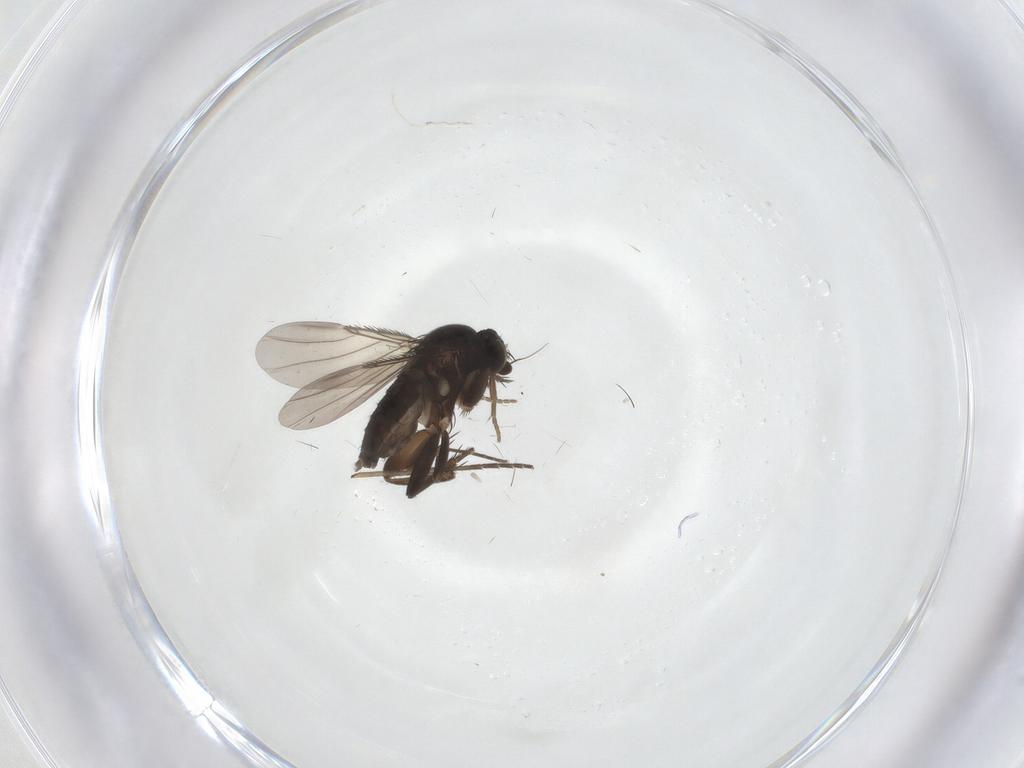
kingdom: Animalia
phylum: Arthropoda
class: Insecta
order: Diptera
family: Phoridae
